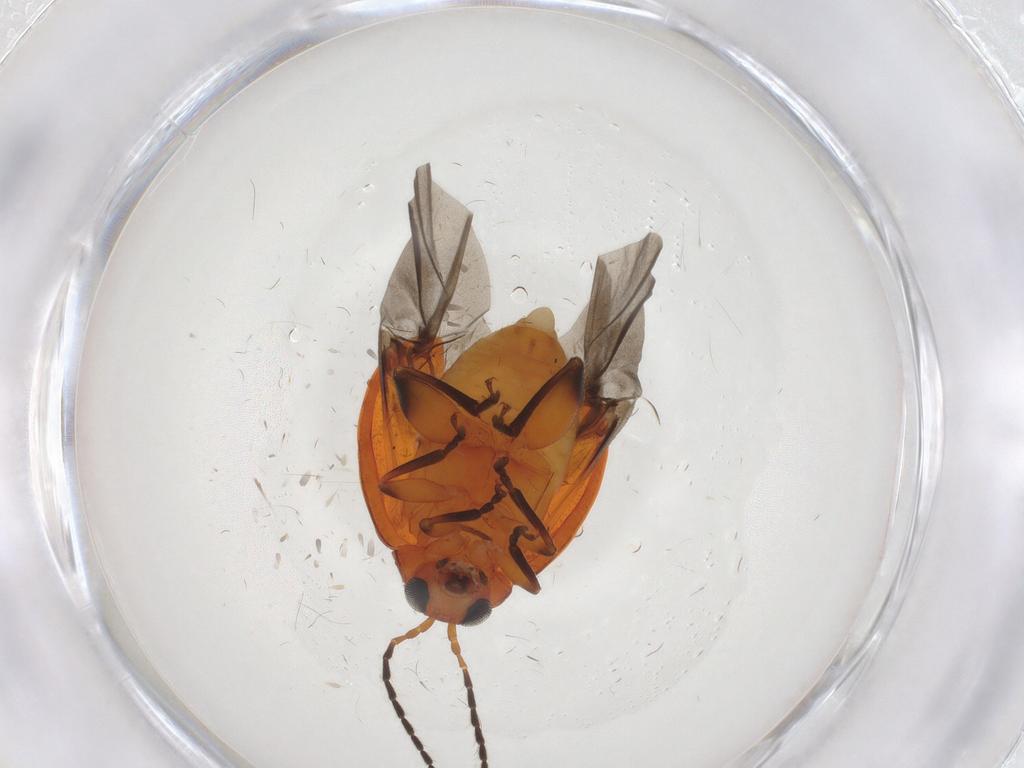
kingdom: Animalia
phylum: Arthropoda
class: Insecta
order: Coleoptera
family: Chrysomelidae
